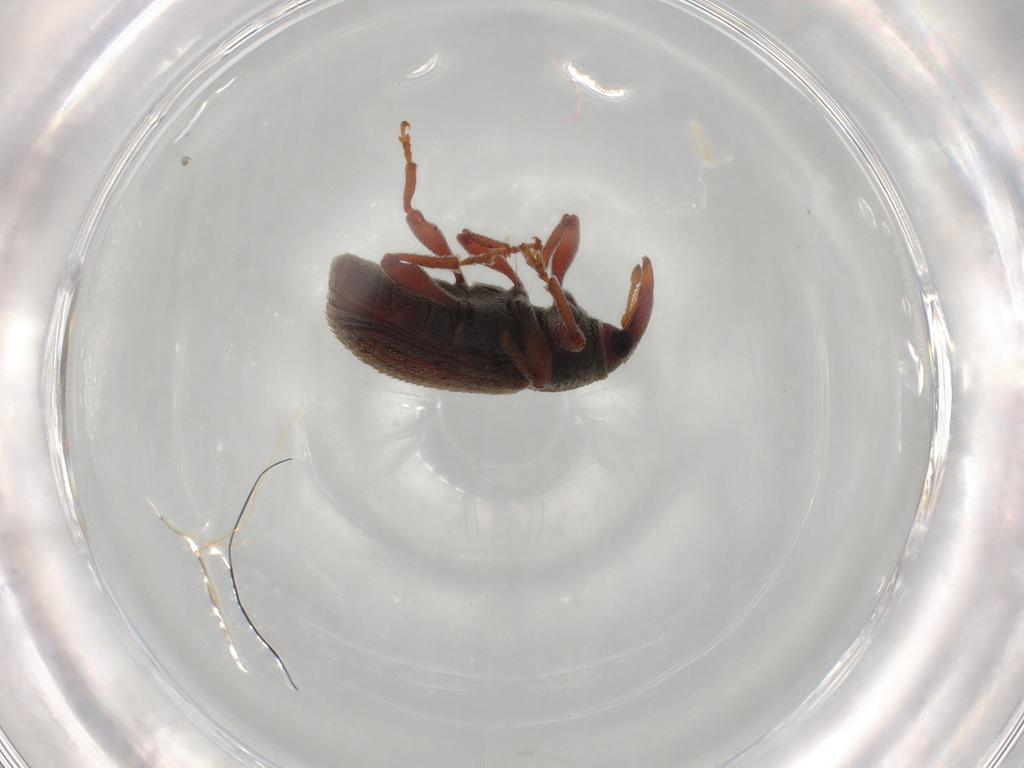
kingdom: Animalia
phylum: Arthropoda
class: Insecta
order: Coleoptera
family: Curculionidae
